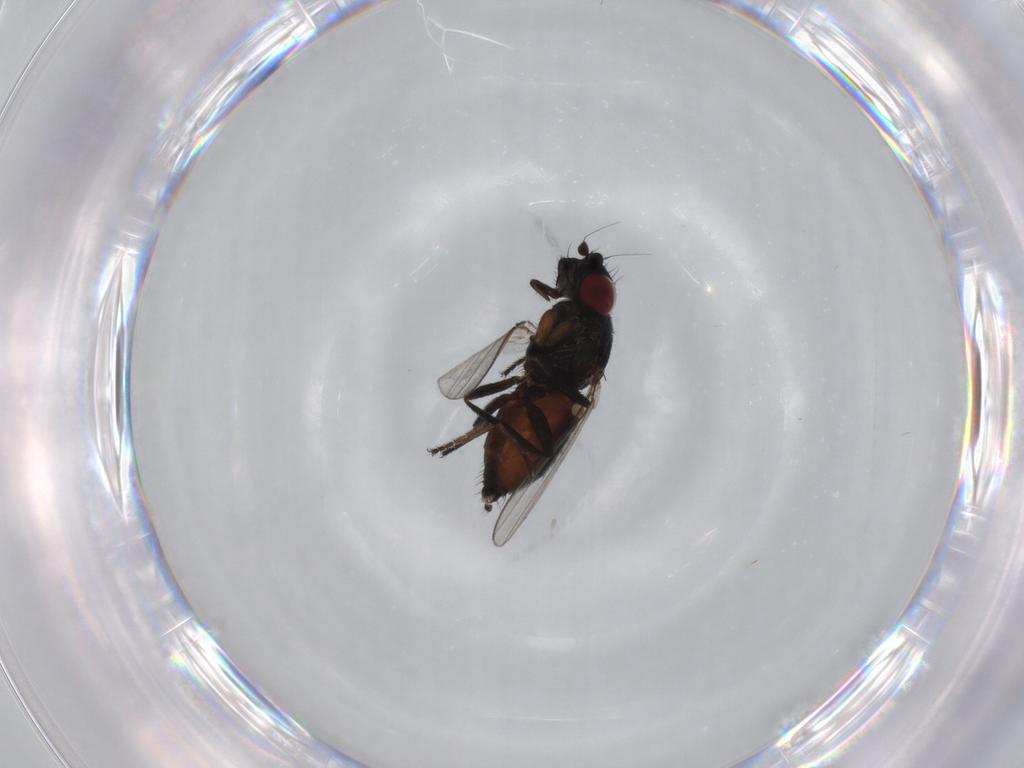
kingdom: Animalia
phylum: Arthropoda
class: Insecta
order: Diptera
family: Milichiidae
